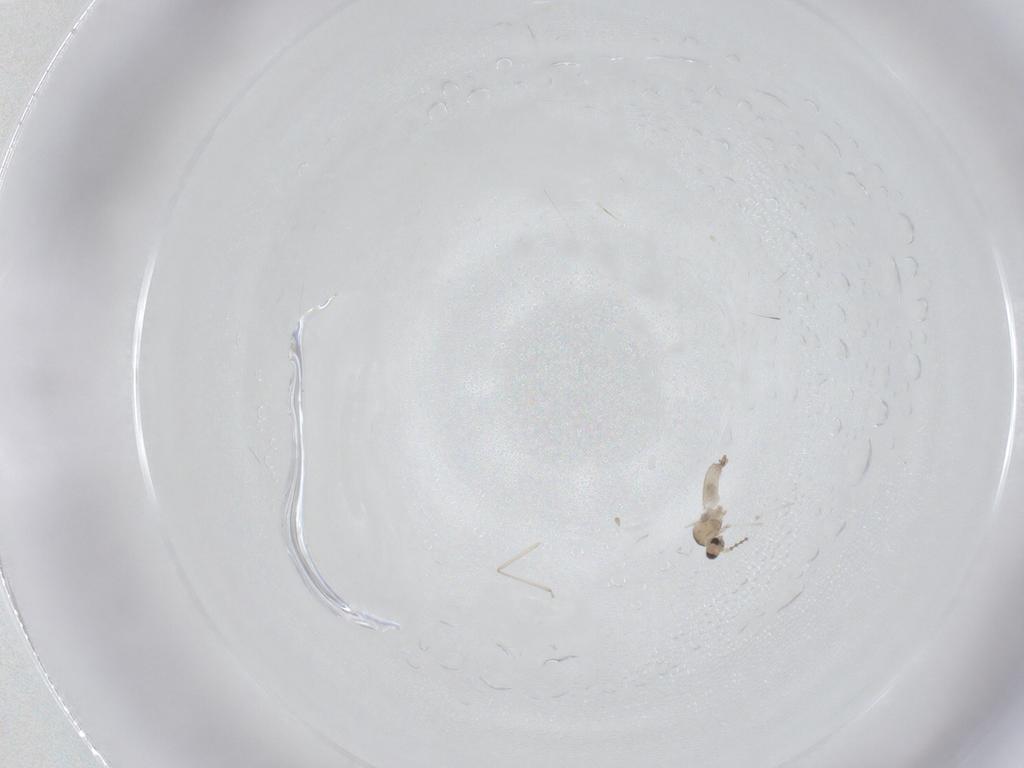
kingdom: Animalia
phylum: Arthropoda
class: Insecta
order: Diptera
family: Cecidomyiidae
